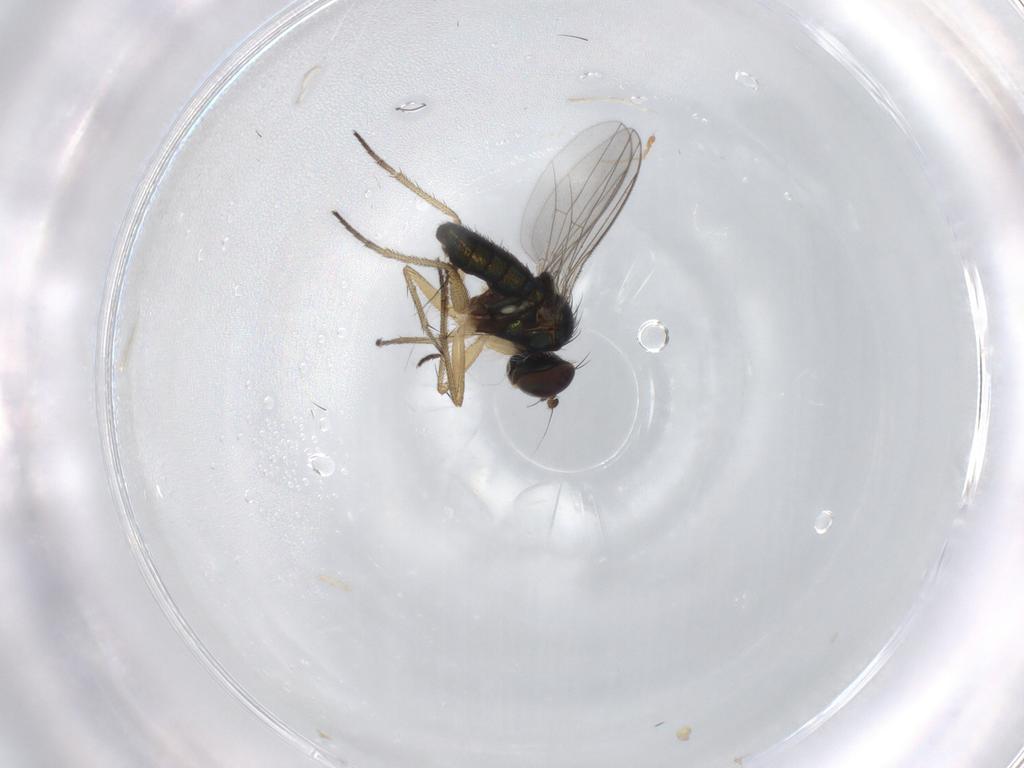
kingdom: Animalia
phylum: Arthropoda
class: Insecta
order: Diptera
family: Dolichopodidae
